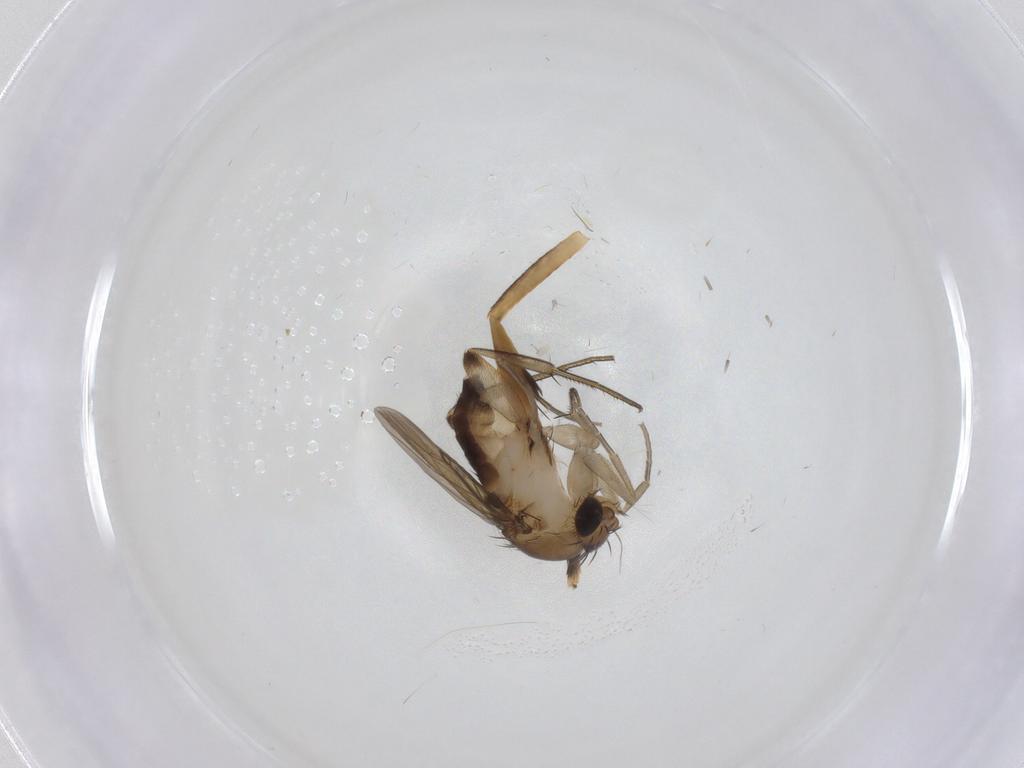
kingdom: Animalia
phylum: Arthropoda
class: Insecta
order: Diptera
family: Phoridae
